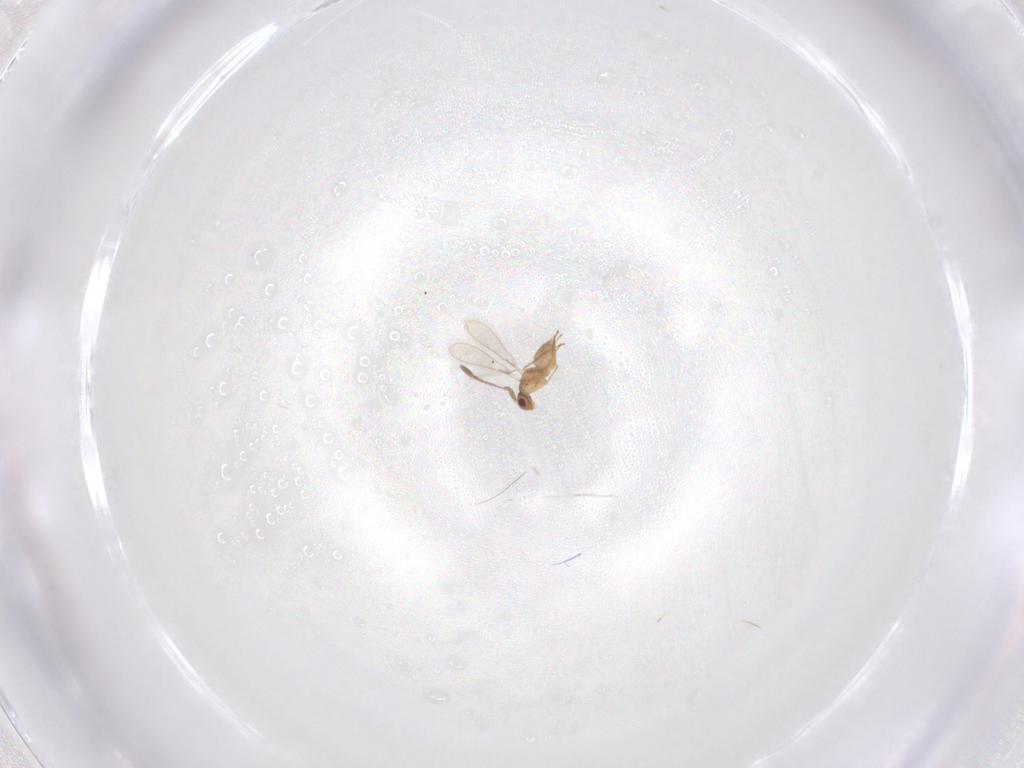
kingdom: Animalia
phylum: Arthropoda
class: Insecta
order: Hymenoptera
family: Mymaridae
